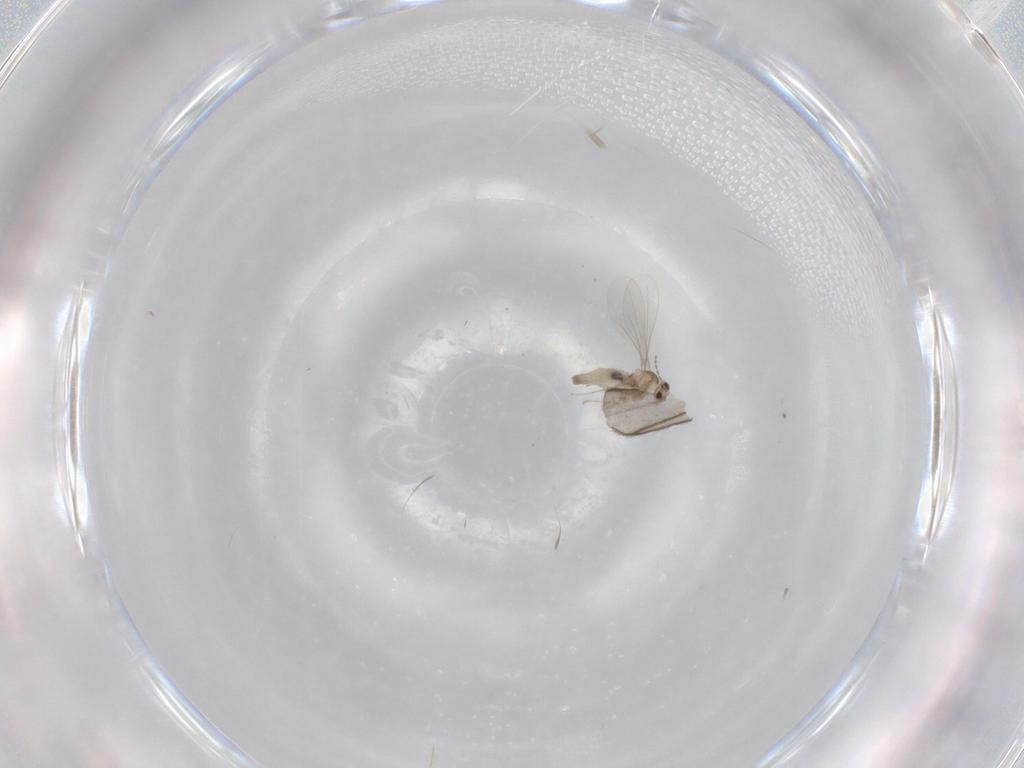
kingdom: Animalia
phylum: Arthropoda
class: Insecta
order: Diptera
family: Cecidomyiidae
